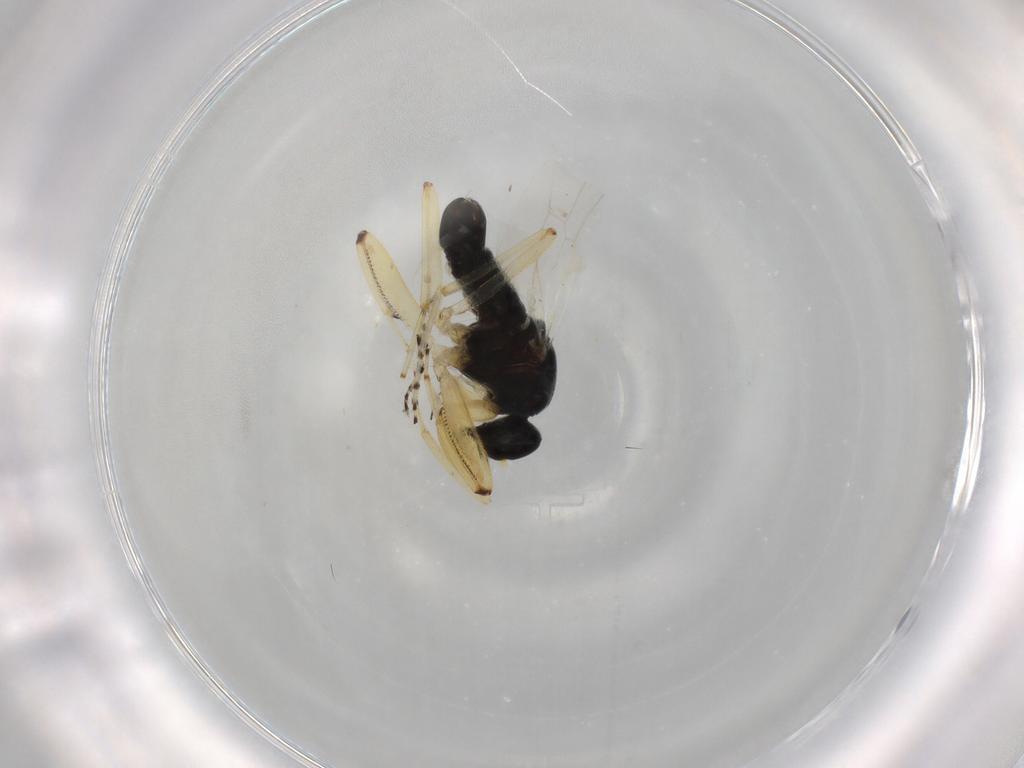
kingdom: Animalia
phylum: Arthropoda
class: Insecta
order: Diptera
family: Hybotidae
